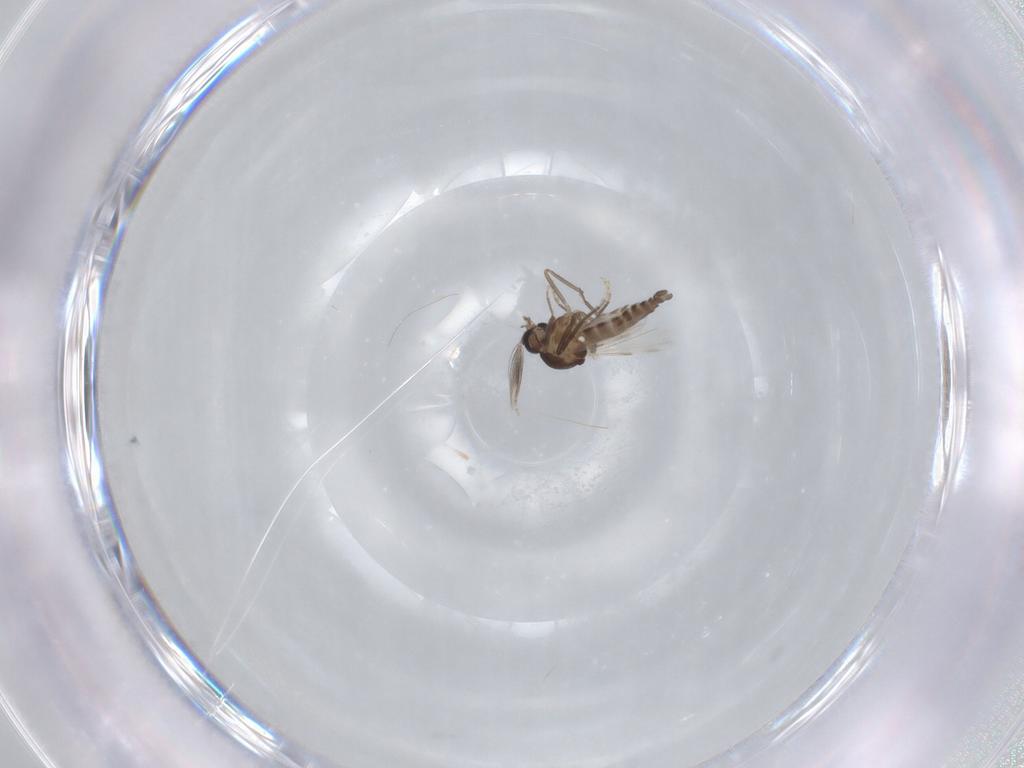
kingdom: Animalia
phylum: Arthropoda
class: Insecta
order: Diptera
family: Ceratopogonidae
